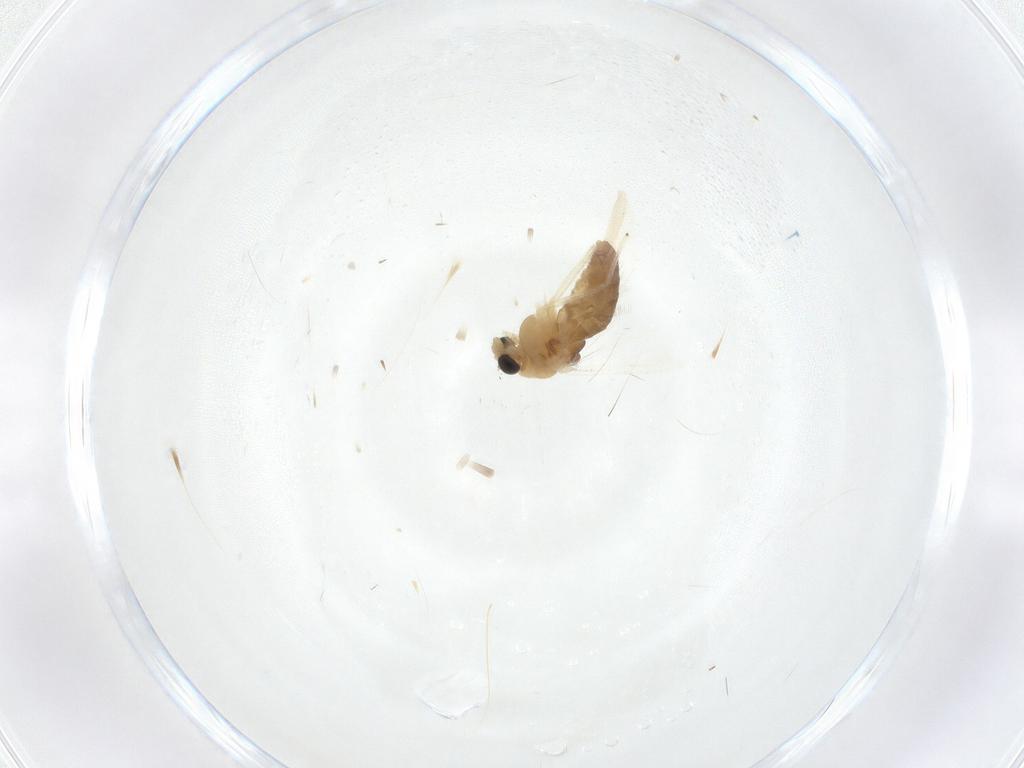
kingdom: Animalia
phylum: Arthropoda
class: Insecta
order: Diptera
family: Chironomidae
